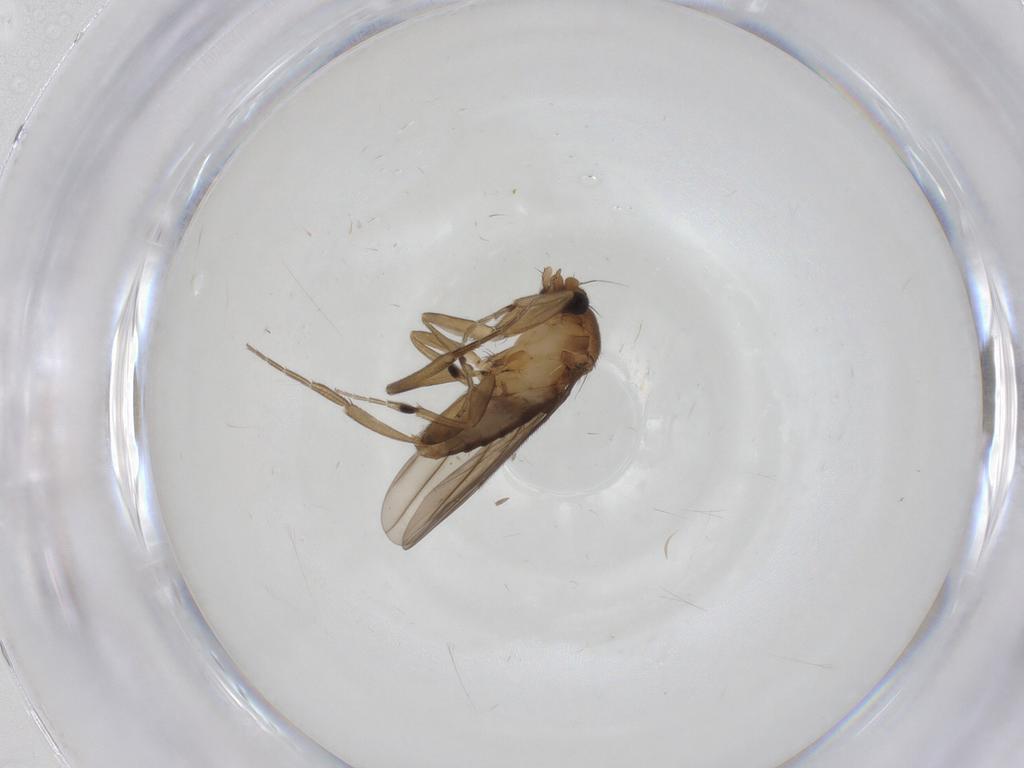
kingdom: Animalia
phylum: Arthropoda
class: Insecta
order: Diptera
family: Phoridae
